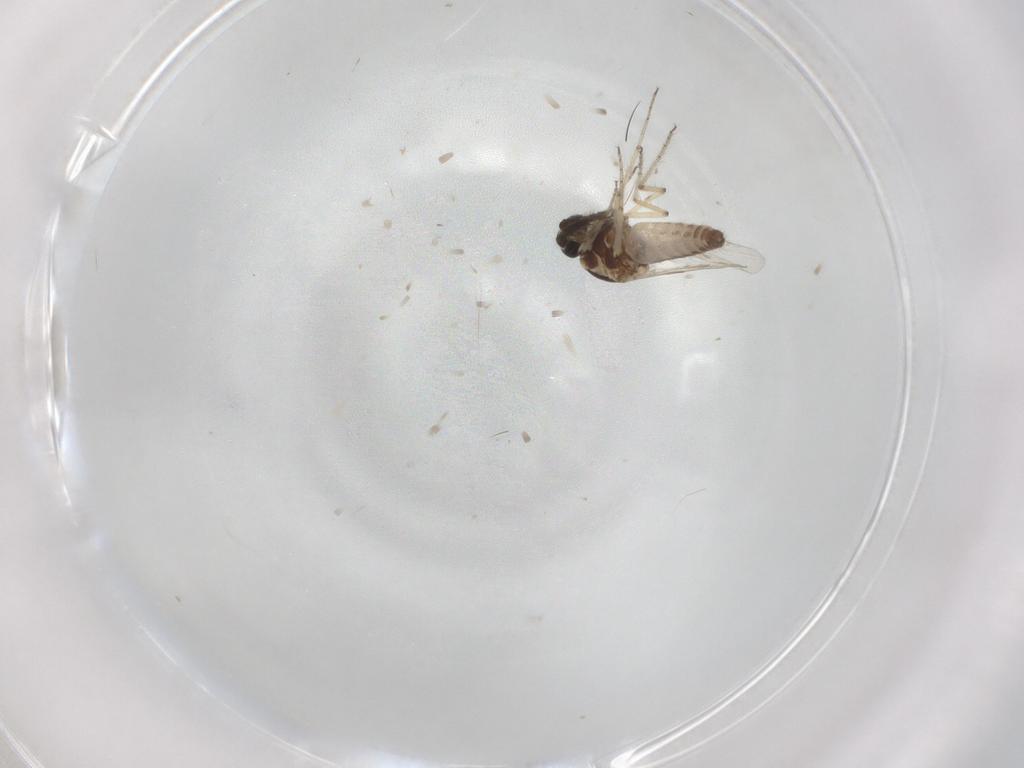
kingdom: Animalia
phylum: Arthropoda
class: Insecta
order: Diptera
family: Ceratopogonidae
